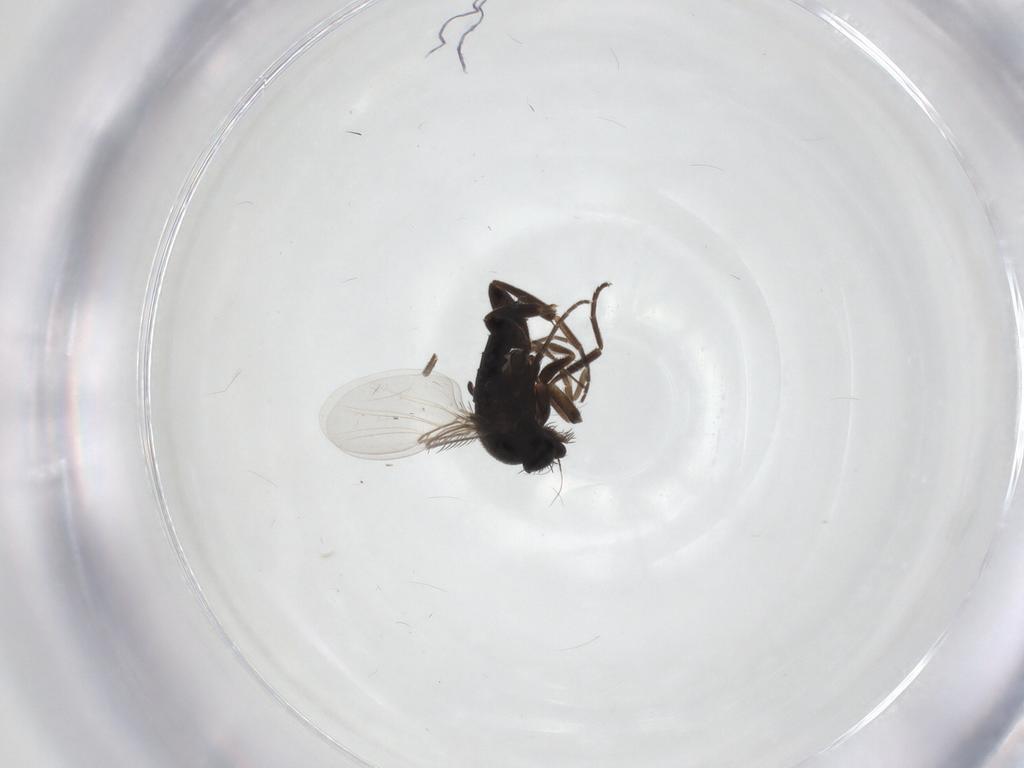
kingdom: Animalia
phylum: Arthropoda
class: Insecta
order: Diptera
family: Phoridae
